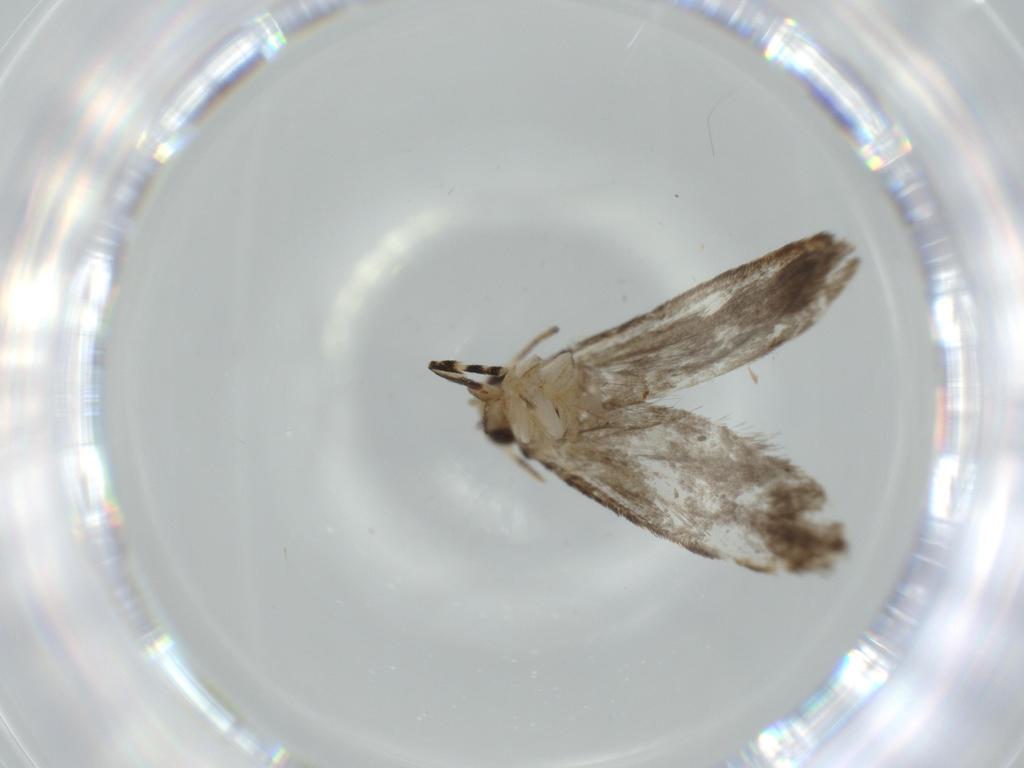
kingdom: Animalia
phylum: Arthropoda
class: Insecta
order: Lepidoptera
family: Tineidae
